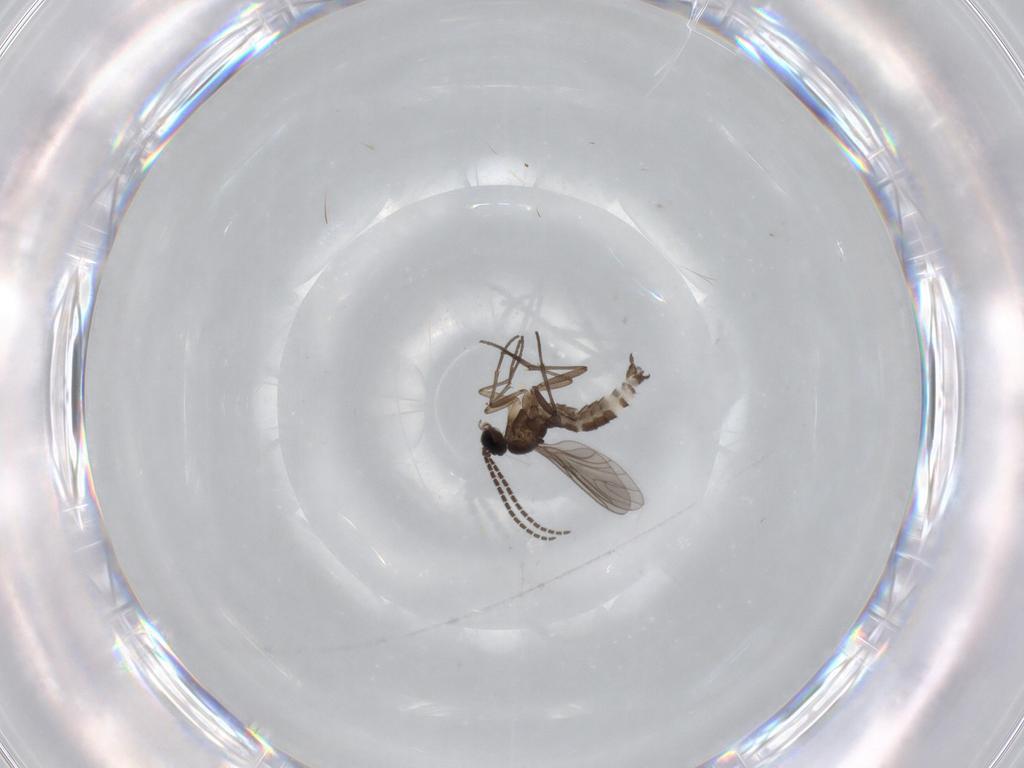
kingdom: Animalia
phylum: Arthropoda
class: Insecta
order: Diptera
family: Sciaridae
